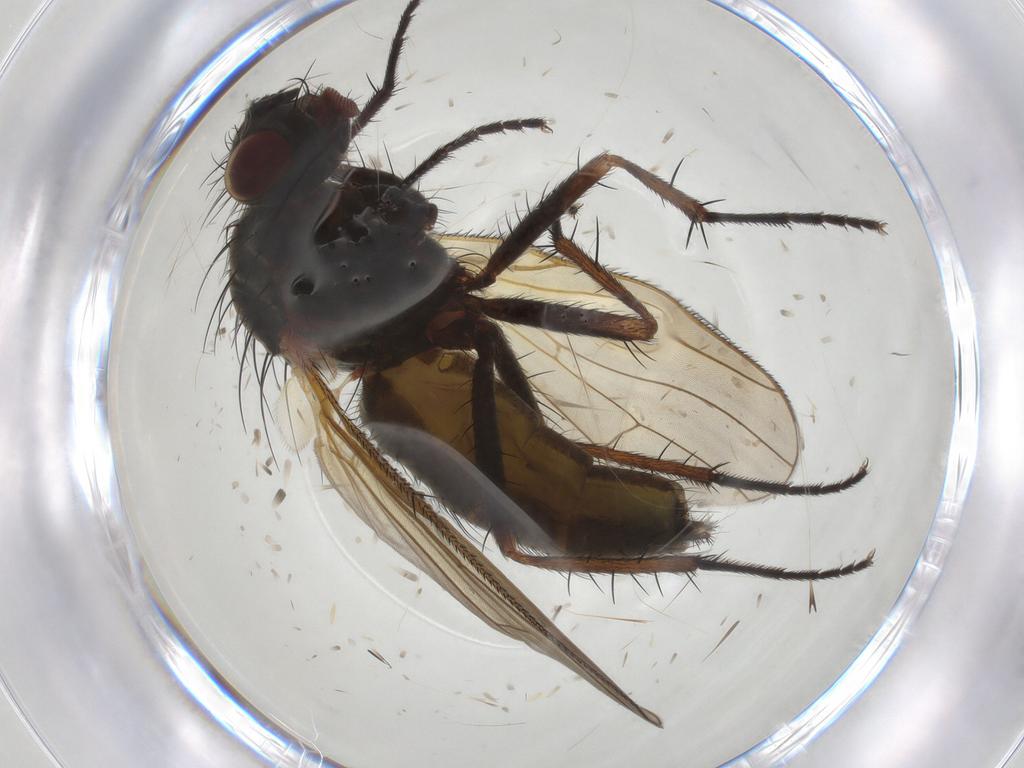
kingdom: Animalia
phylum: Arthropoda
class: Insecta
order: Diptera
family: Anthomyiidae
